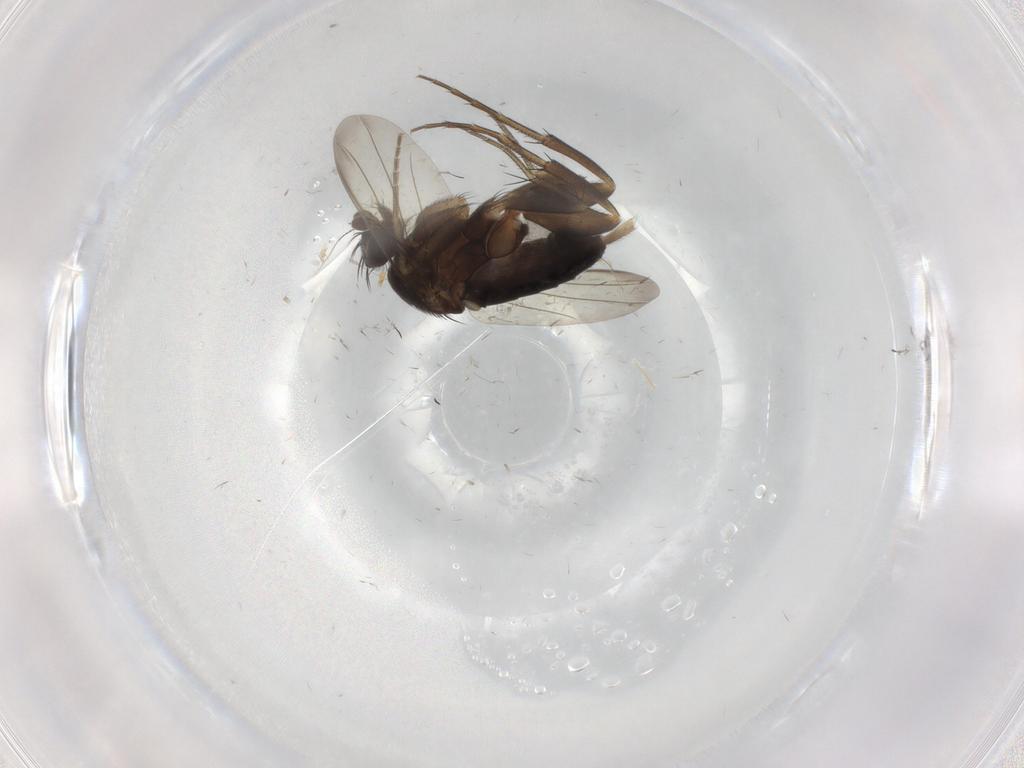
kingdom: Animalia
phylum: Arthropoda
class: Insecta
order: Diptera
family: Psychodidae
